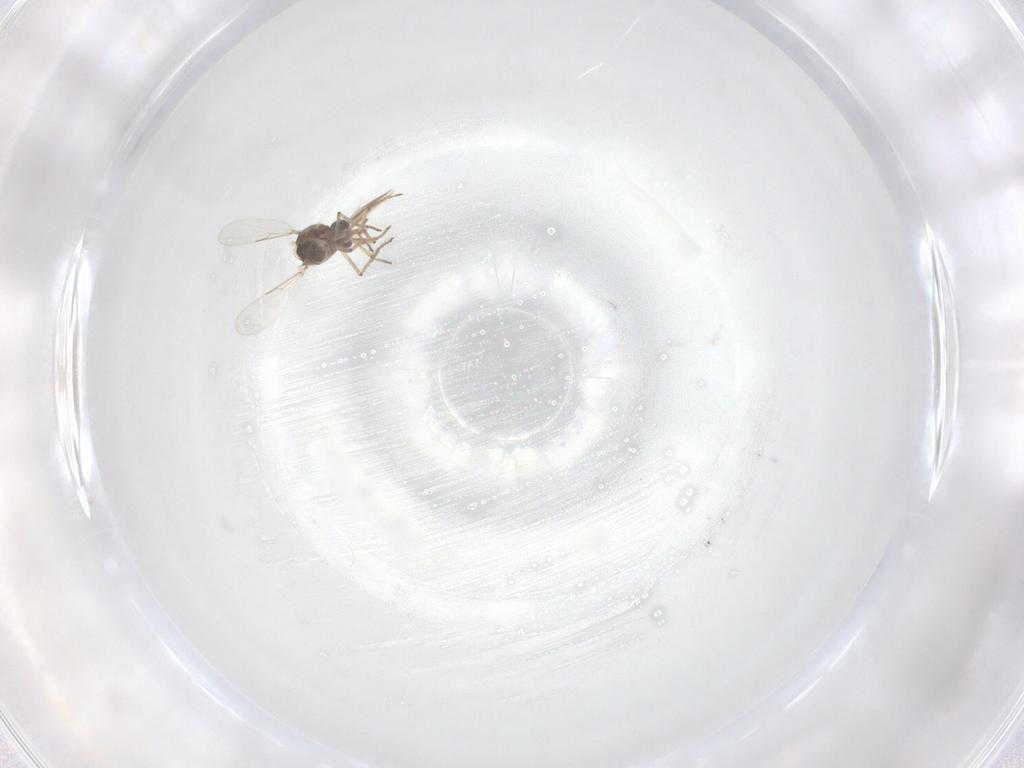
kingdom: Animalia
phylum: Arthropoda
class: Insecta
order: Diptera
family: Ceratopogonidae
